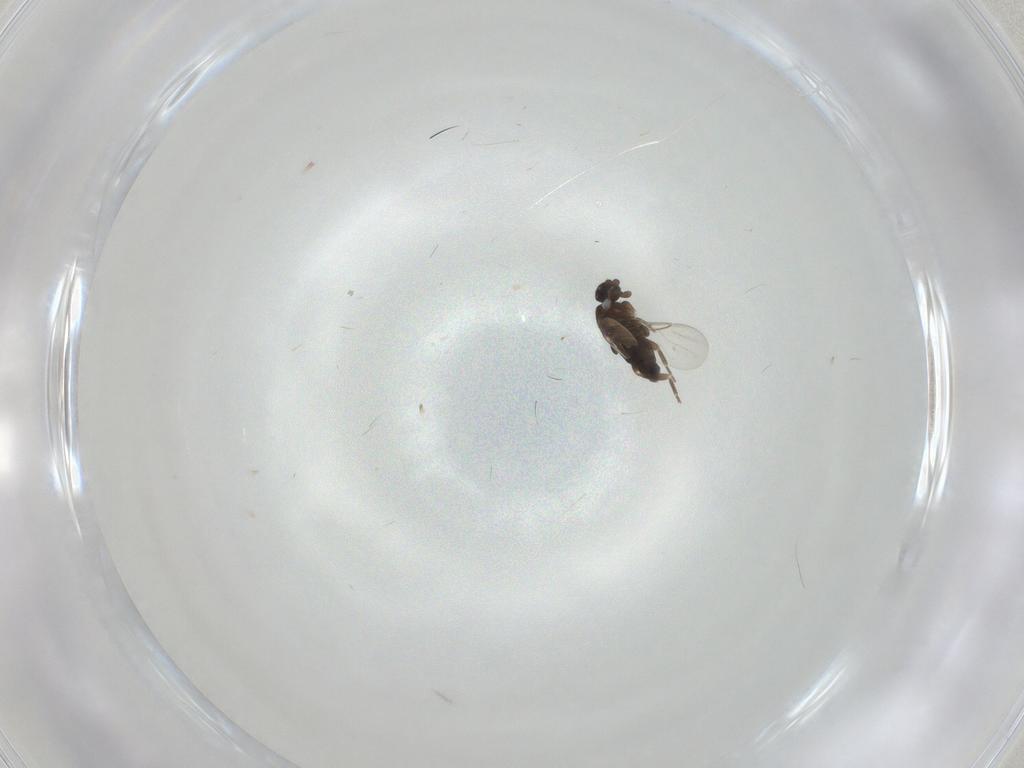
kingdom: Animalia
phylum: Arthropoda
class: Insecta
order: Diptera
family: Phoridae
